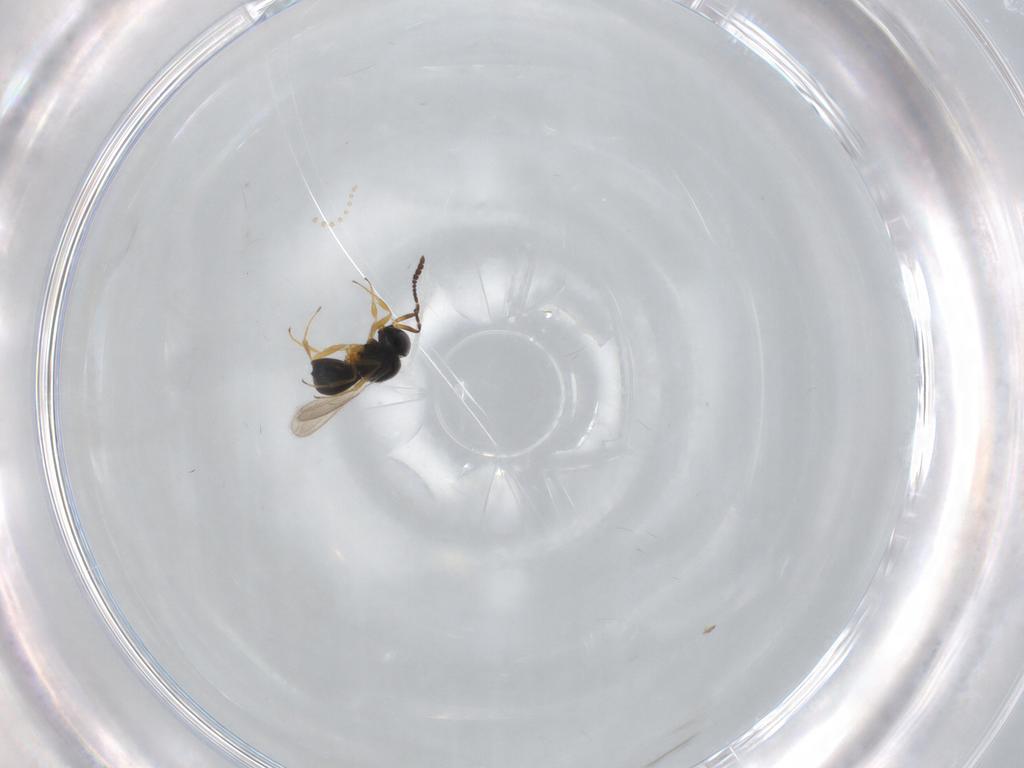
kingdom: Animalia
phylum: Arthropoda
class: Insecta
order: Hymenoptera
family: Scelionidae
